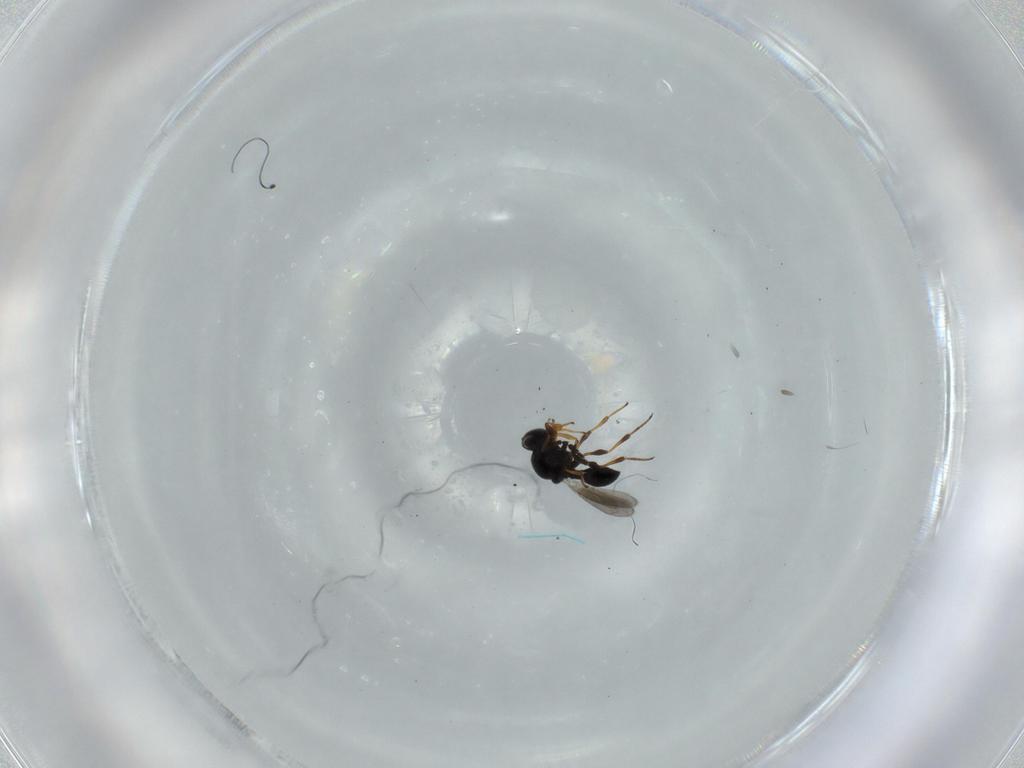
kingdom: Animalia
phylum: Arthropoda
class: Insecta
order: Hymenoptera
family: Platygastridae
